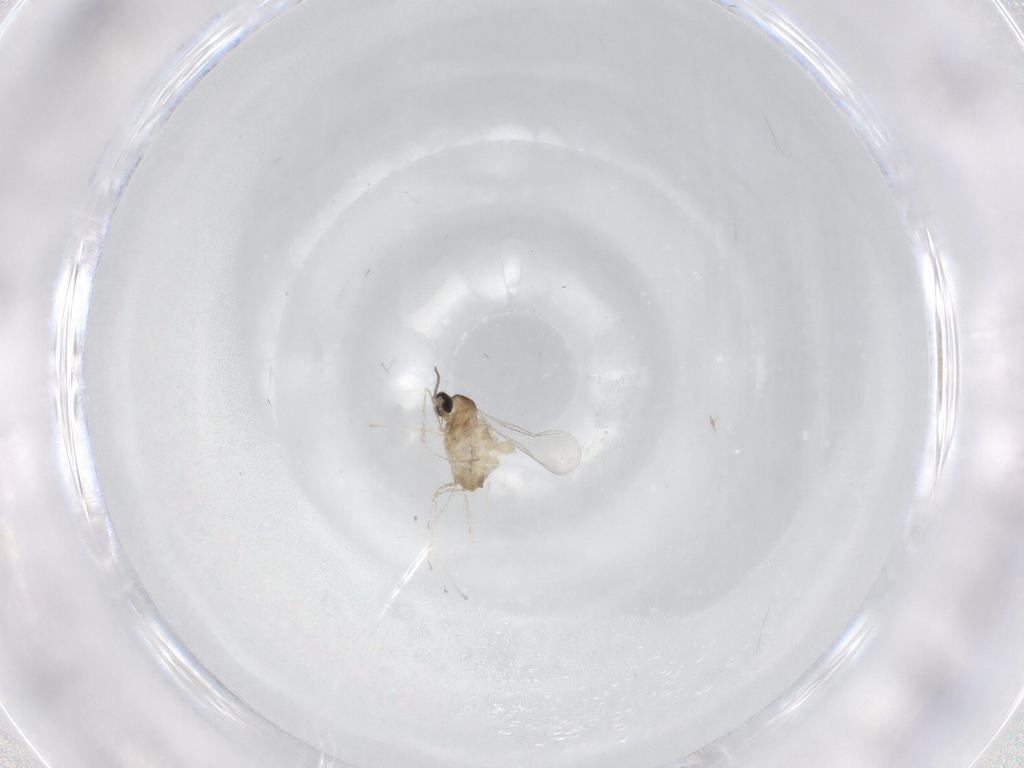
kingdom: Animalia
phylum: Arthropoda
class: Insecta
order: Diptera
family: Cecidomyiidae
